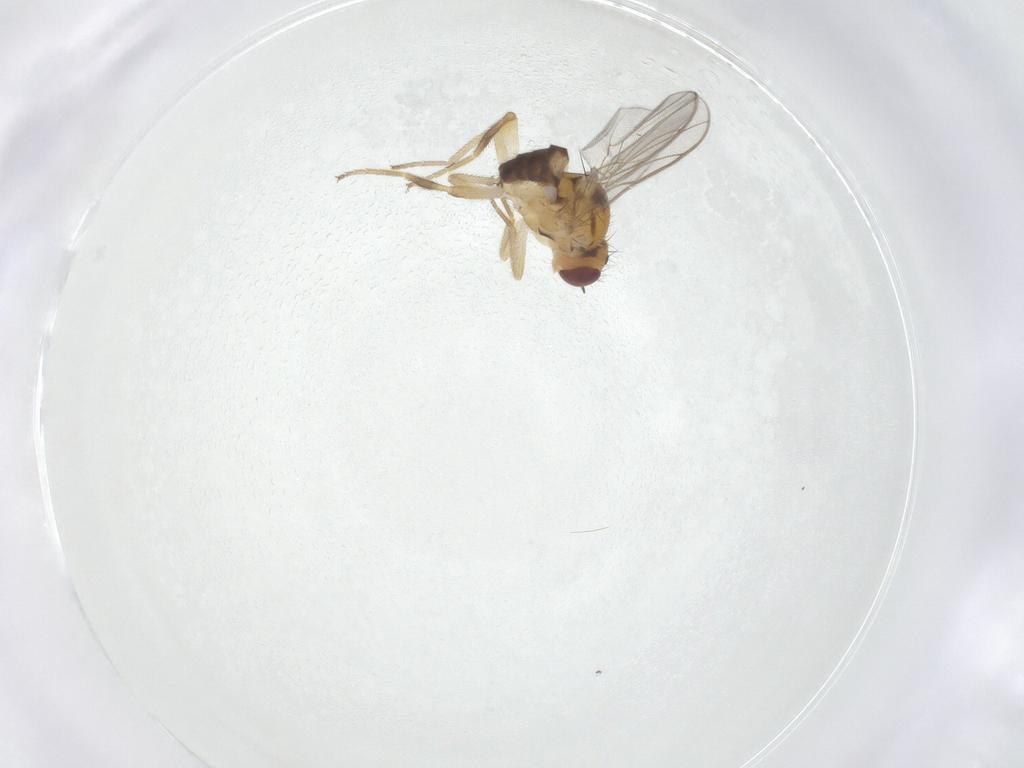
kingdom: Animalia
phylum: Arthropoda
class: Insecta
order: Diptera
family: Chloropidae
